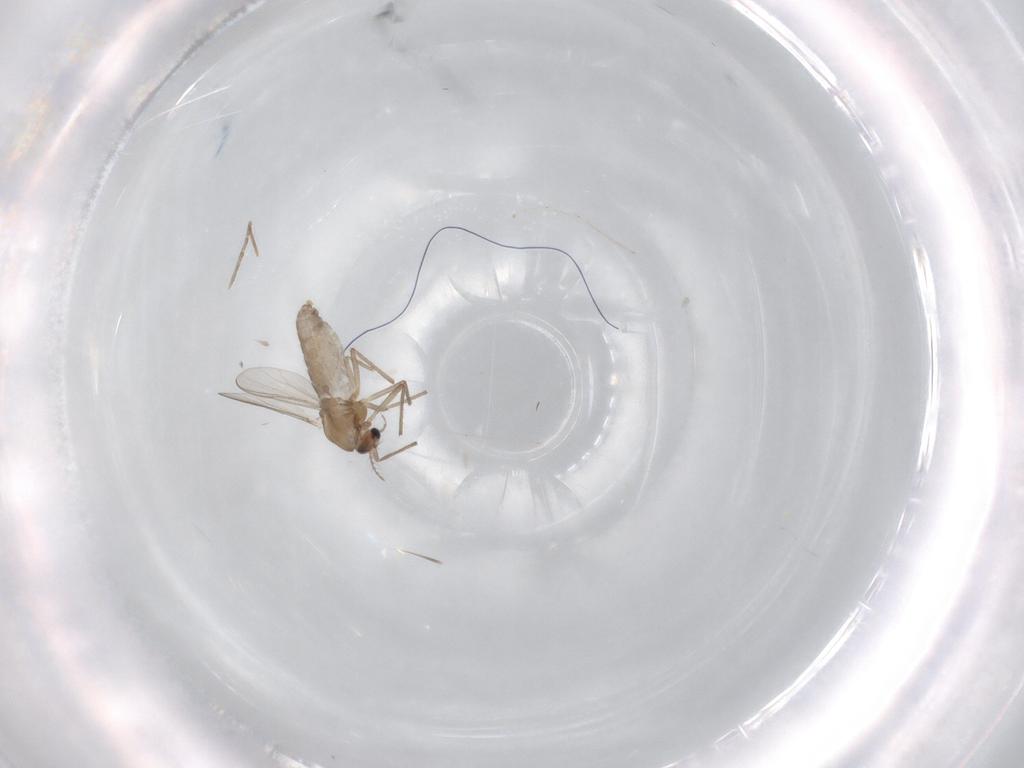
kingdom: Animalia
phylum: Arthropoda
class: Insecta
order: Diptera
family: Chironomidae
